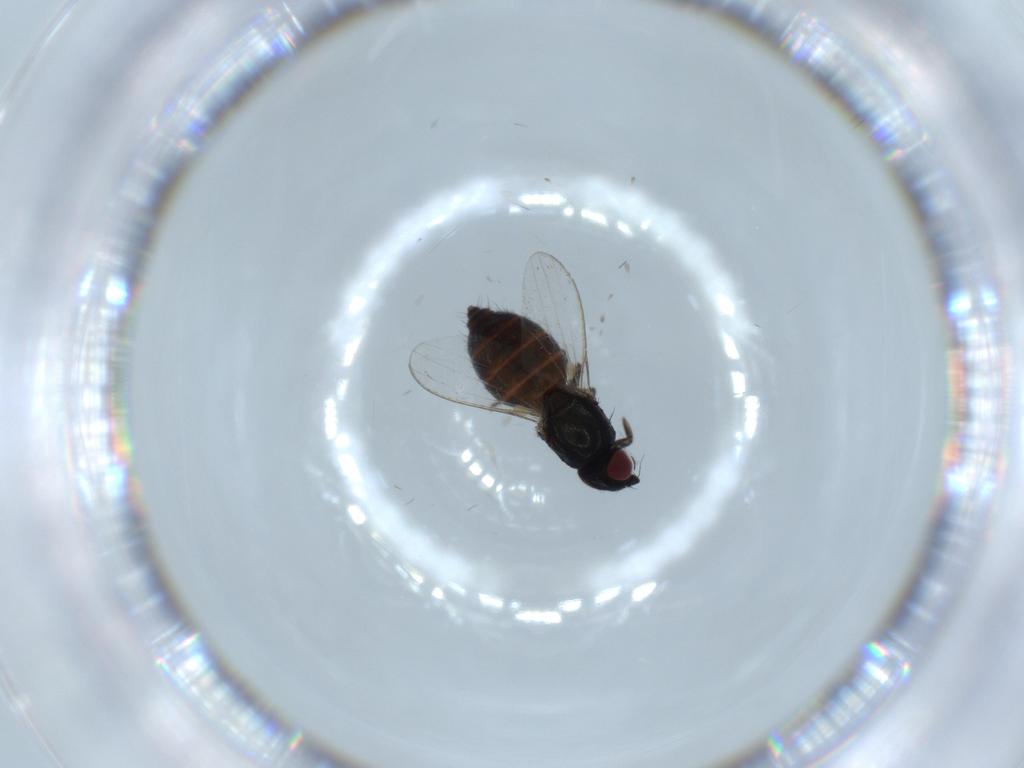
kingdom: Animalia
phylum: Arthropoda
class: Insecta
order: Diptera
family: Milichiidae
